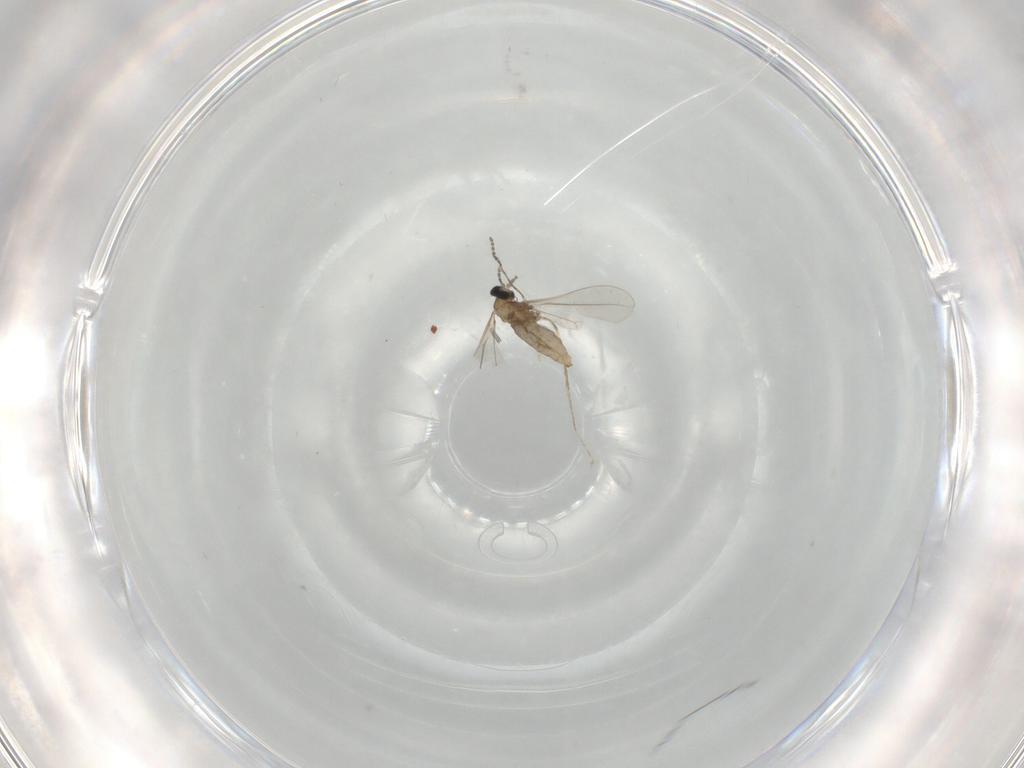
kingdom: Animalia
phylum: Arthropoda
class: Insecta
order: Diptera
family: Cecidomyiidae
